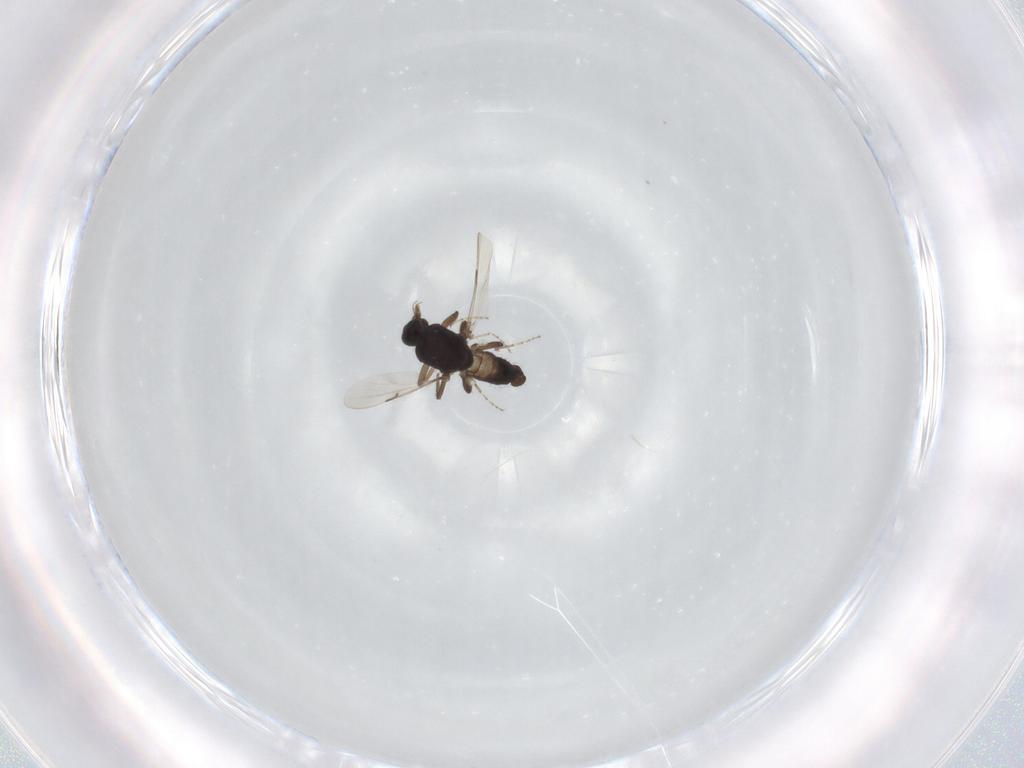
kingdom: Animalia
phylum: Arthropoda
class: Insecta
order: Diptera
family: Ceratopogonidae
